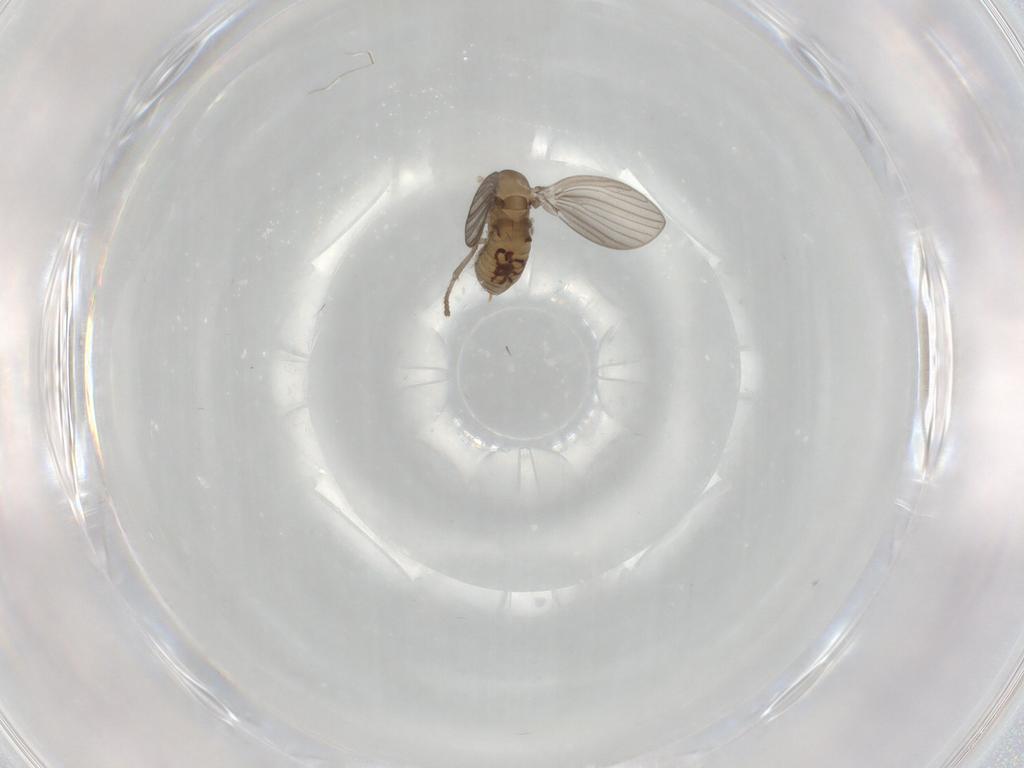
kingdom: Animalia
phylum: Arthropoda
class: Insecta
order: Diptera
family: Psychodidae
